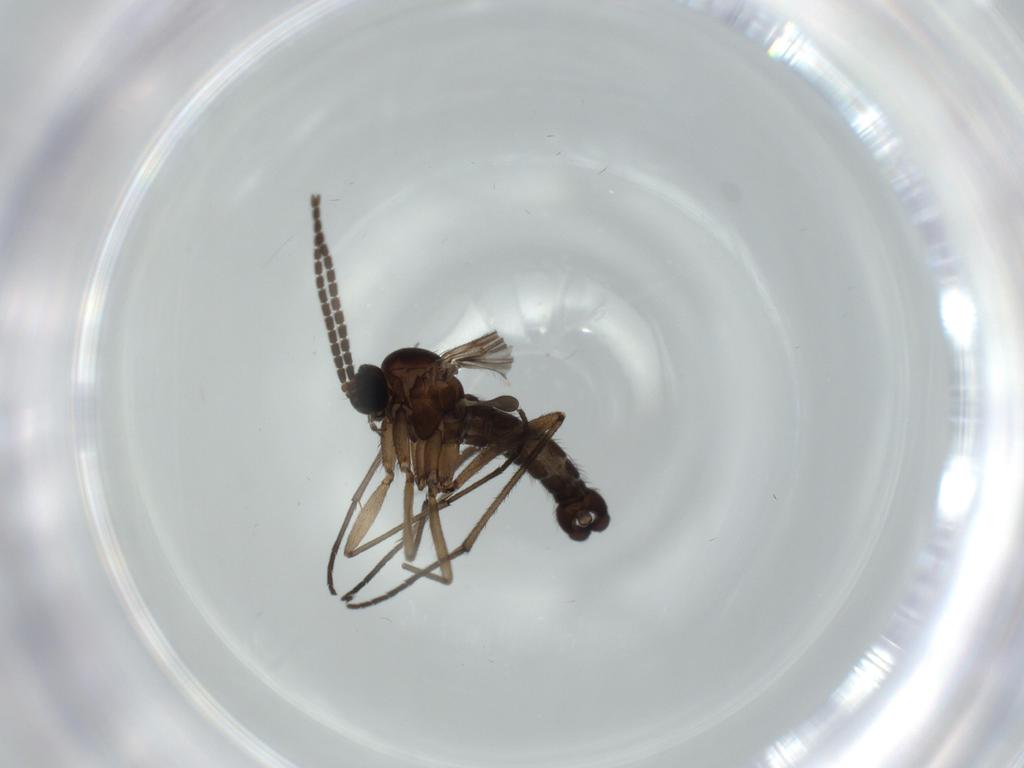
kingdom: Animalia
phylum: Arthropoda
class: Insecta
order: Diptera
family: Sciaridae
